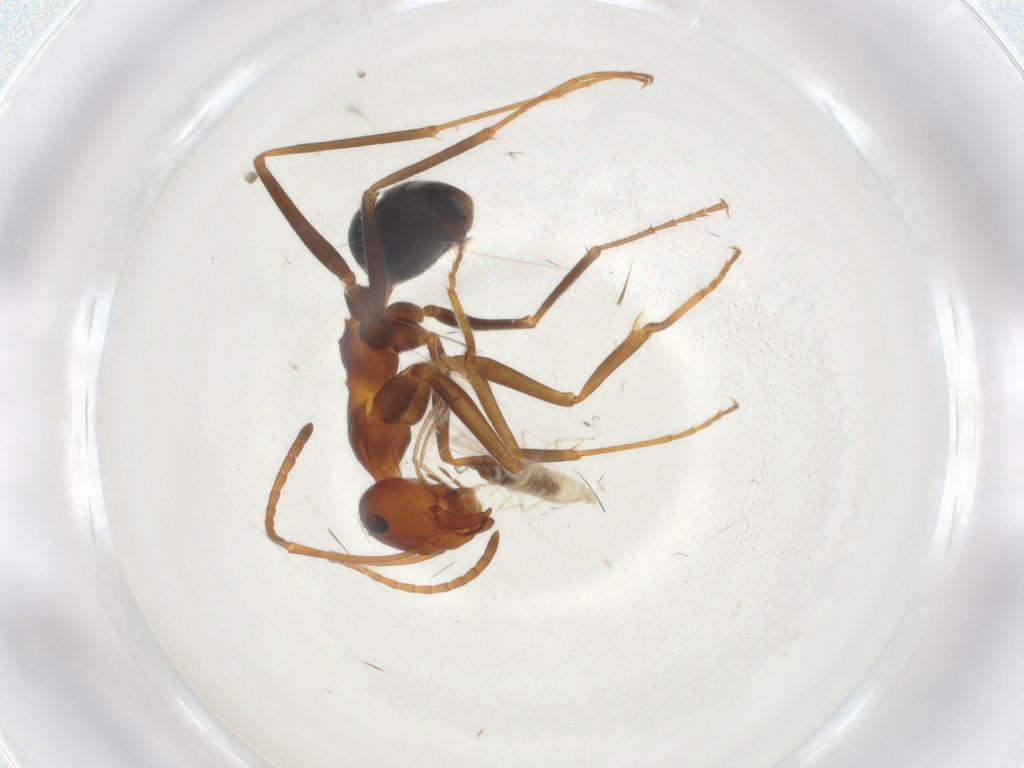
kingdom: Animalia
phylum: Arthropoda
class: Insecta
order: Hymenoptera
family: Formicidae
